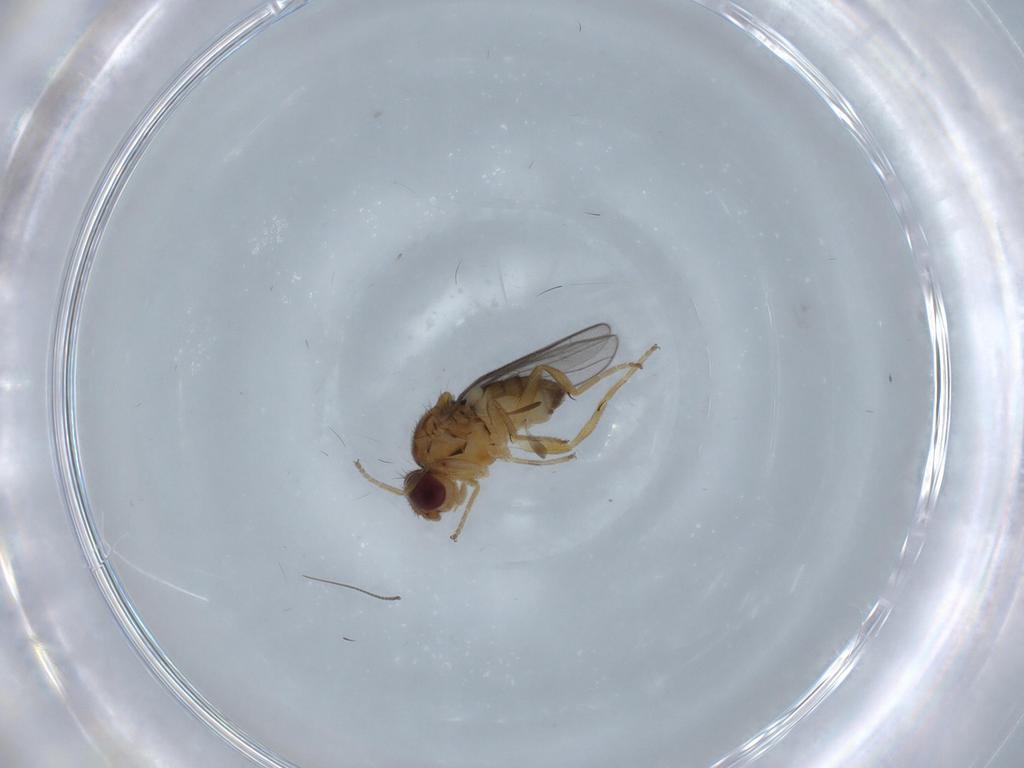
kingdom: Animalia
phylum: Arthropoda
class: Insecta
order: Diptera
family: Chloropidae
